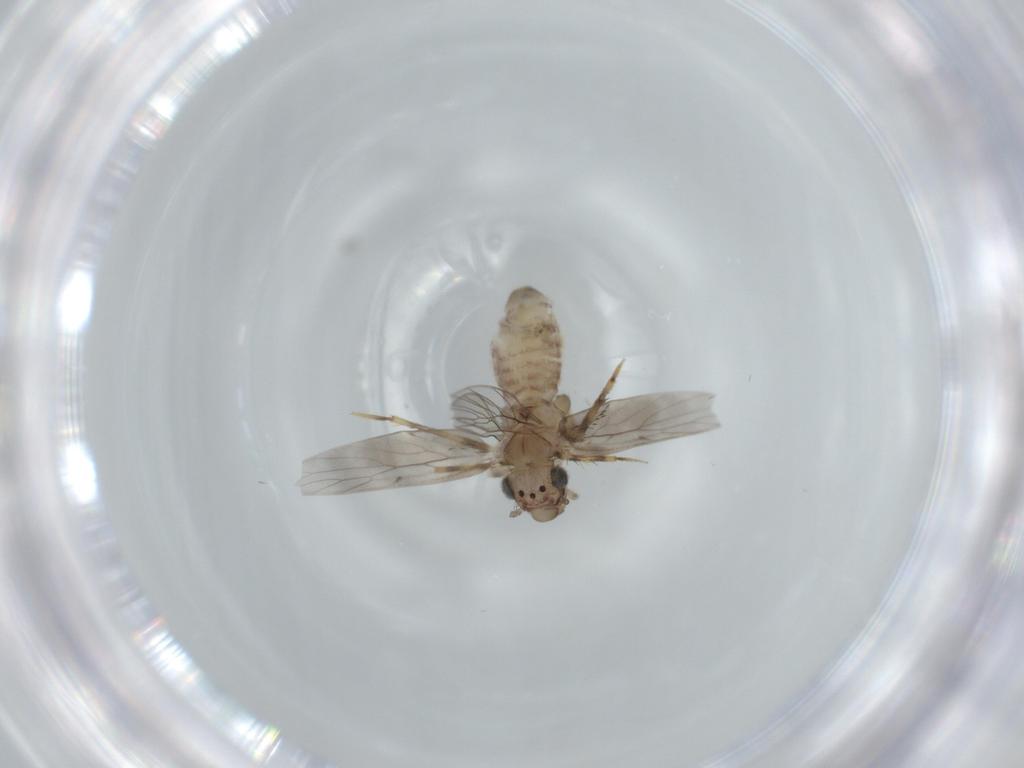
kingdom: Animalia
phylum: Arthropoda
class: Insecta
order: Psocodea
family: Lepidopsocidae
